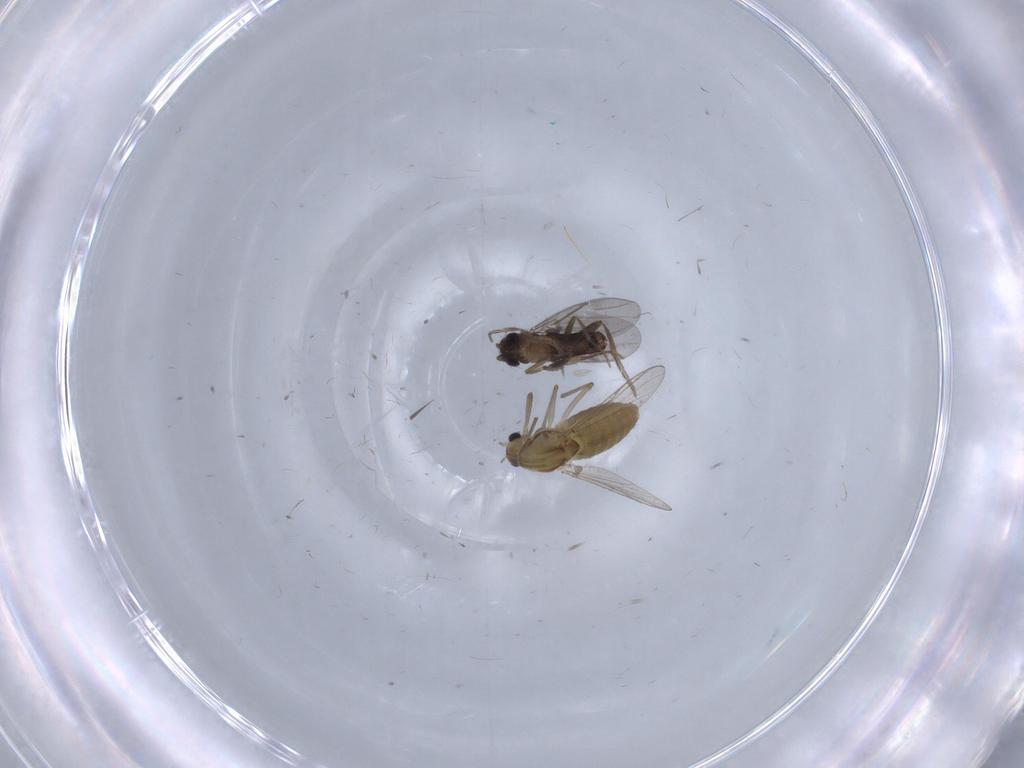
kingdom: Animalia
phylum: Arthropoda
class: Insecta
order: Diptera
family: Chironomidae
